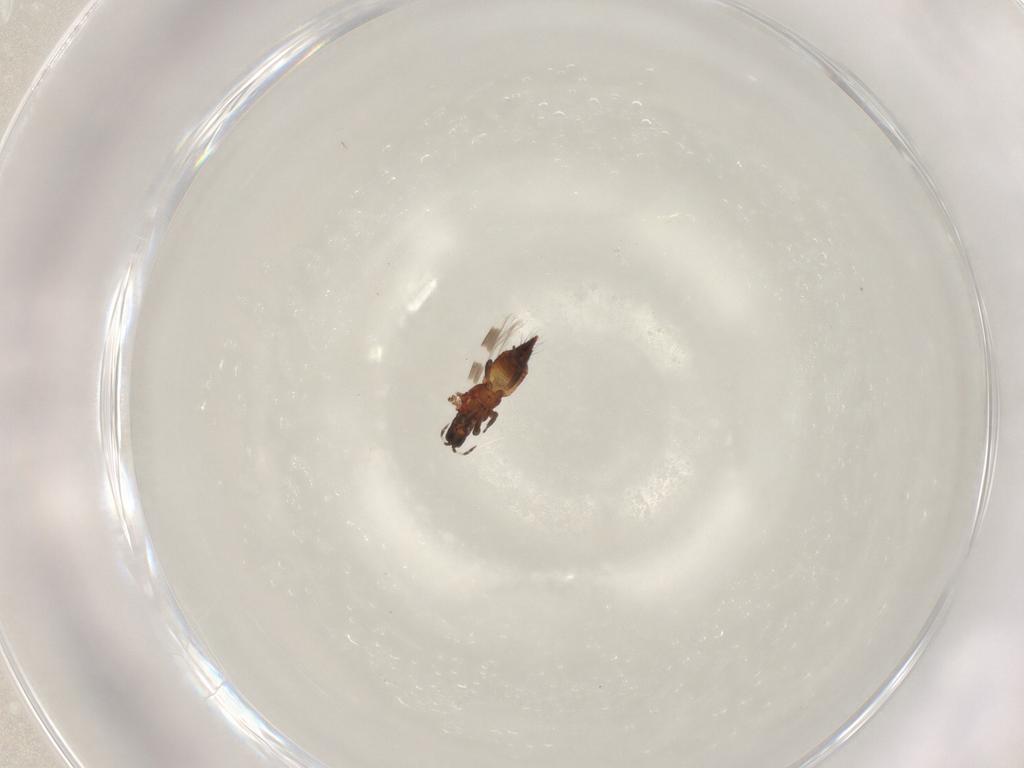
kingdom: Animalia
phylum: Arthropoda
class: Insecta
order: Thysanoptera
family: Aeolothripidae
